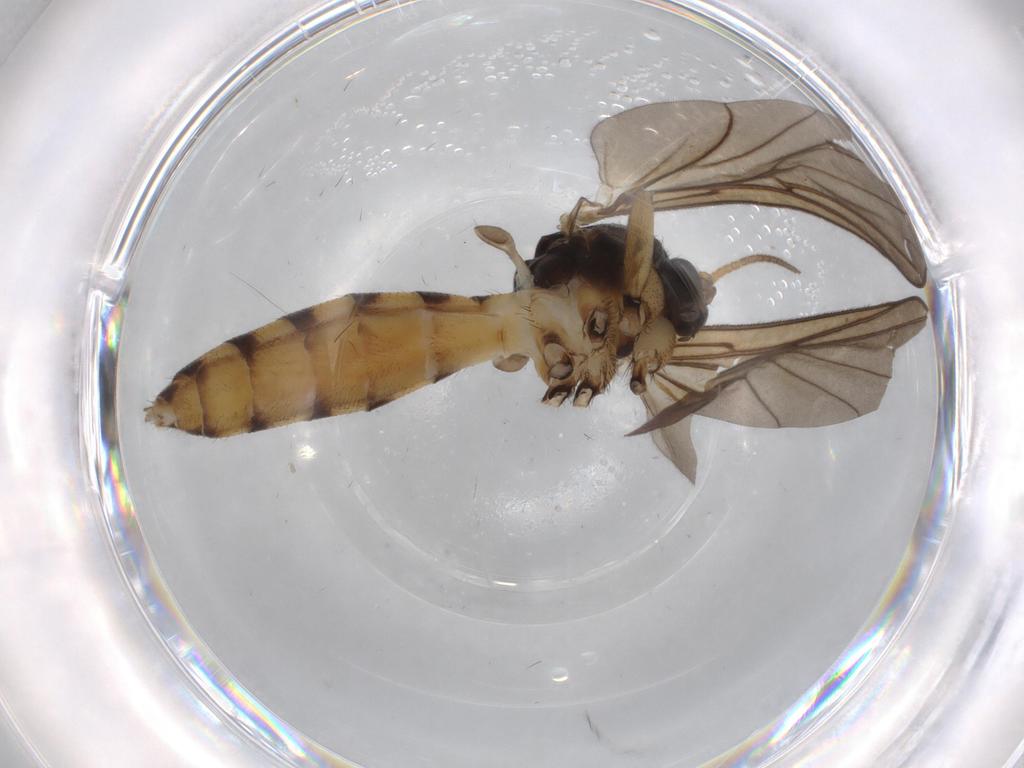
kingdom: Animalia
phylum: Arthropoda
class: Insecta
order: Diptera
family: Mycetophilidae
